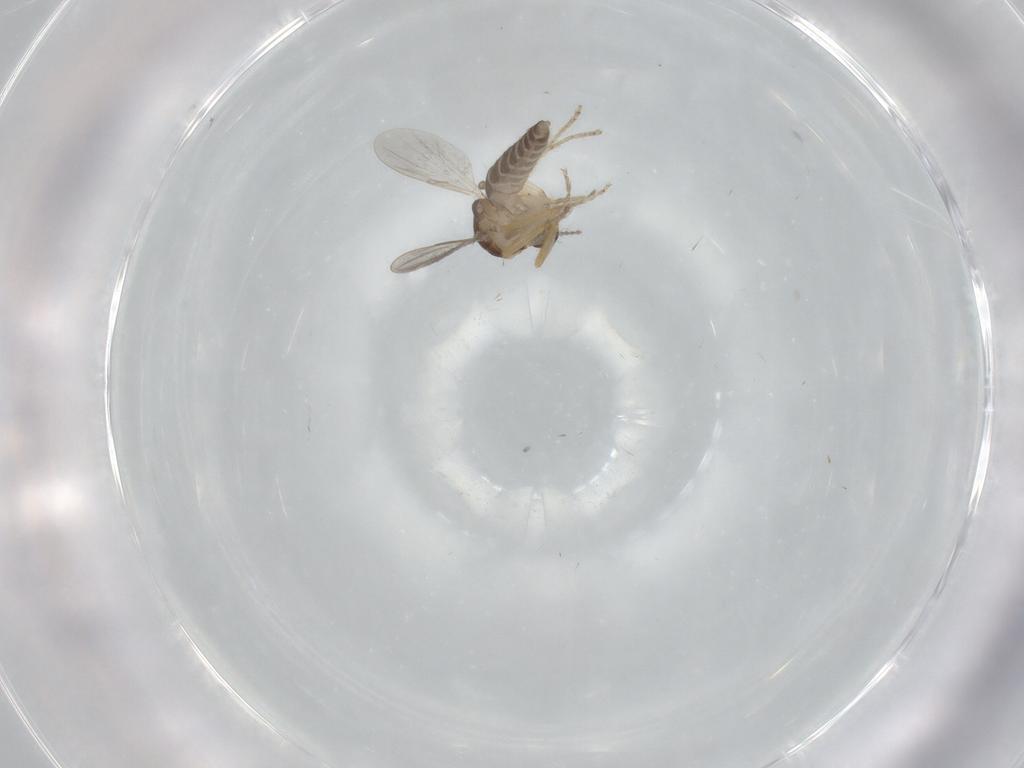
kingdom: Animalia
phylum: Arthropoda
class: Insecta
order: Diptera
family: Ceratopogonidae
